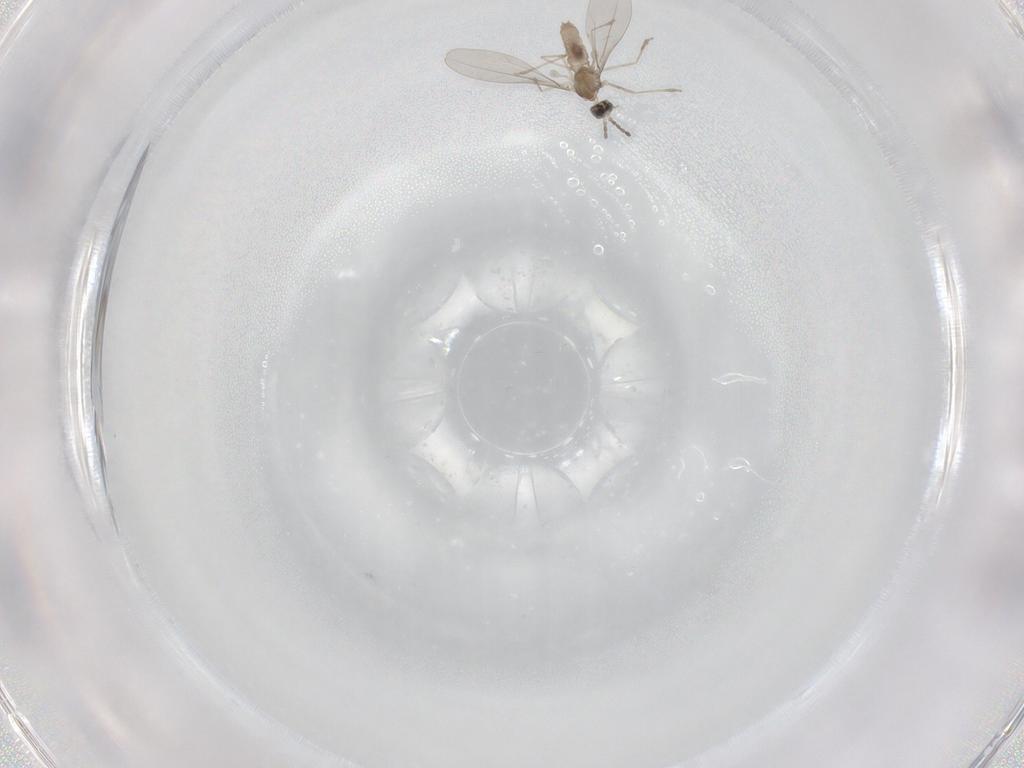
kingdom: Animalia
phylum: Arthropoda
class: Insecta
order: Diptera
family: Cecidomyiidae
